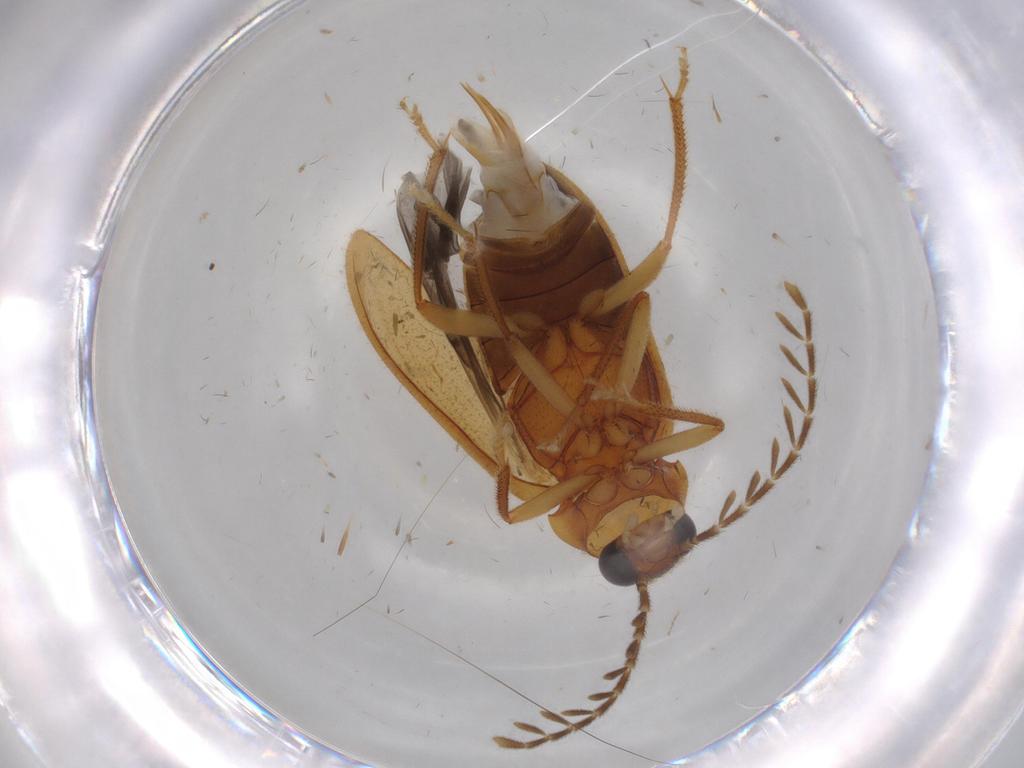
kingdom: Animalia
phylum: Arthropoda
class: Insecta
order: Coleoptera
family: Ptilodactylidae
